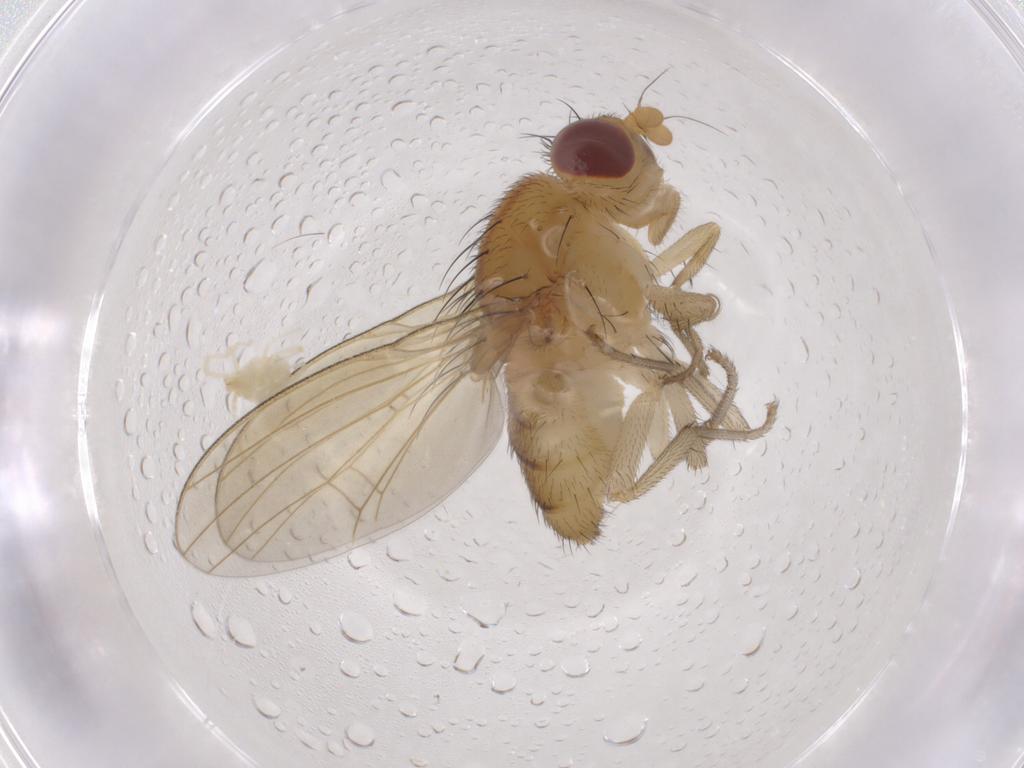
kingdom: Animalia
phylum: Arthropoda
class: Insecta
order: Diptera
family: Lauxaniidae
